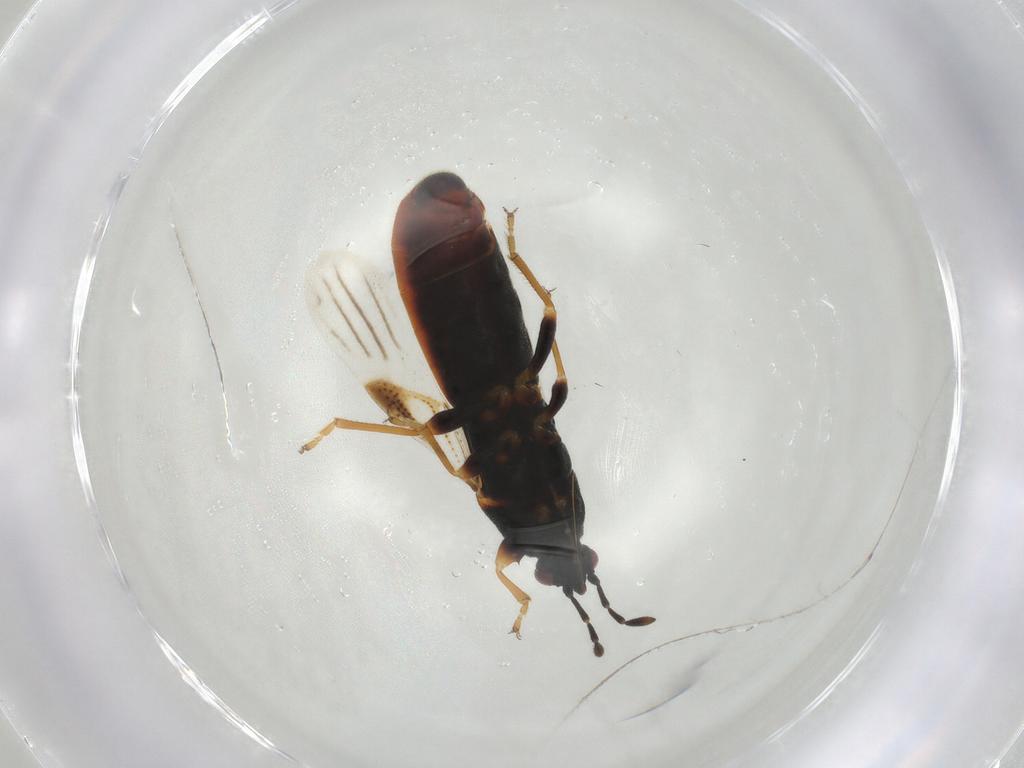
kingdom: Animalia
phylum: Arthropoda
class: Insecta
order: Hemiptera
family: Blissidae
